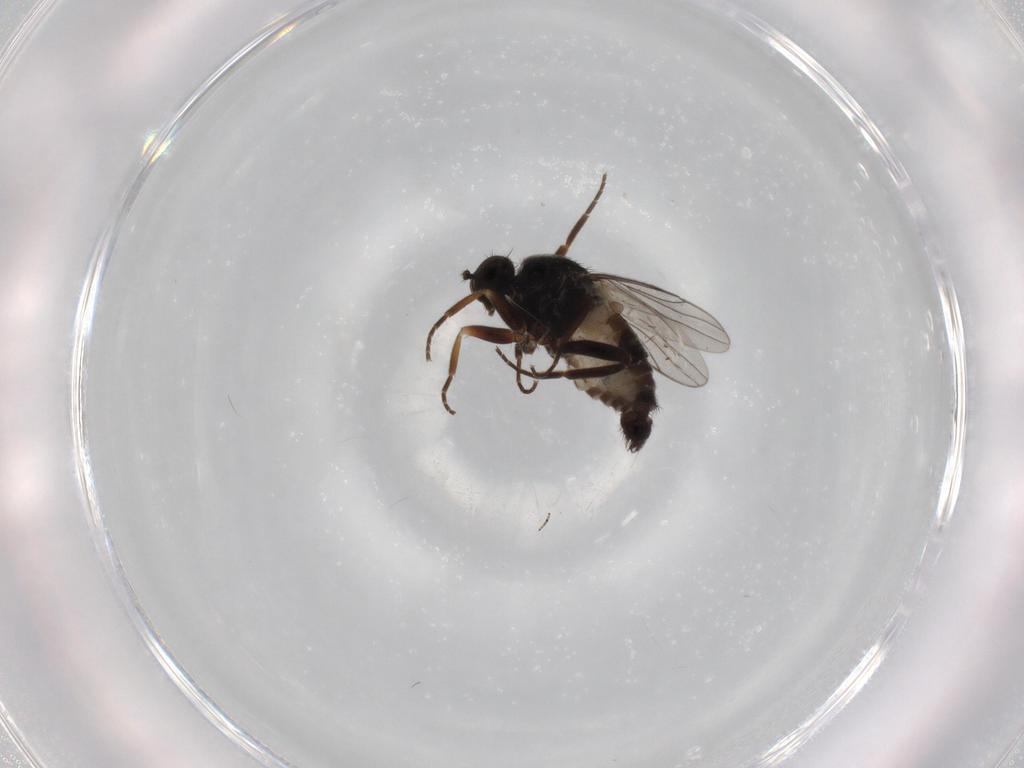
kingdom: Animalia
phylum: Arthropoda
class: Insecta
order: Diptera
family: Hybotidae
